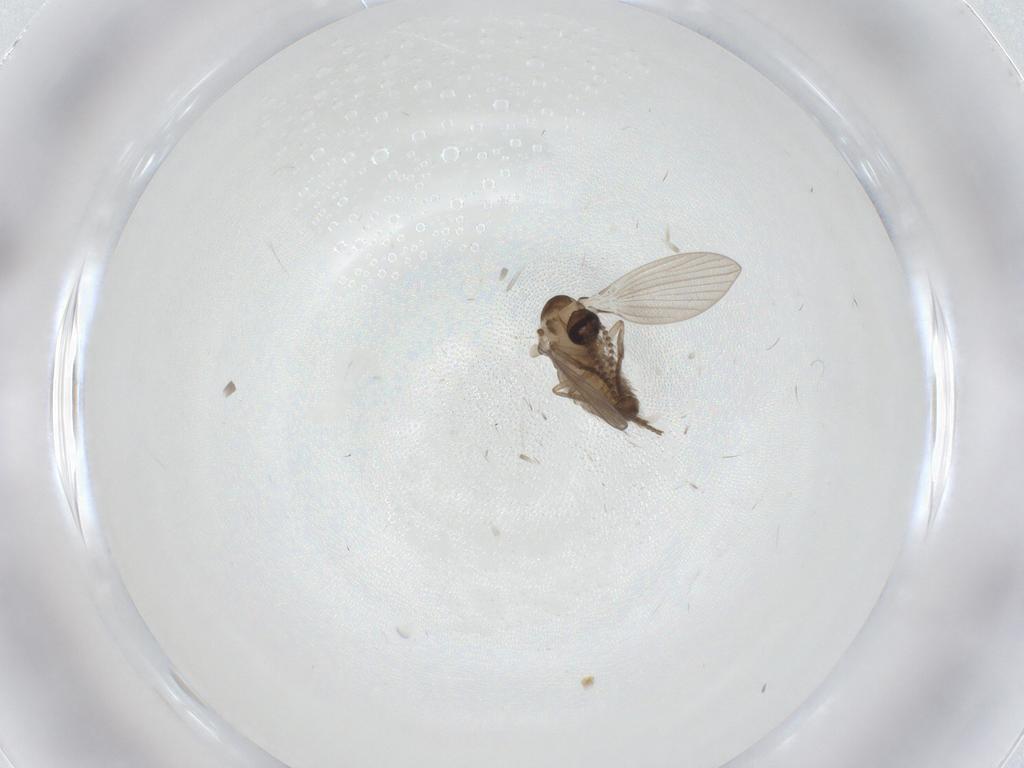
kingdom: Animalia
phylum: Arthropoda
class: Insecta
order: Diptera
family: Psychodidae
